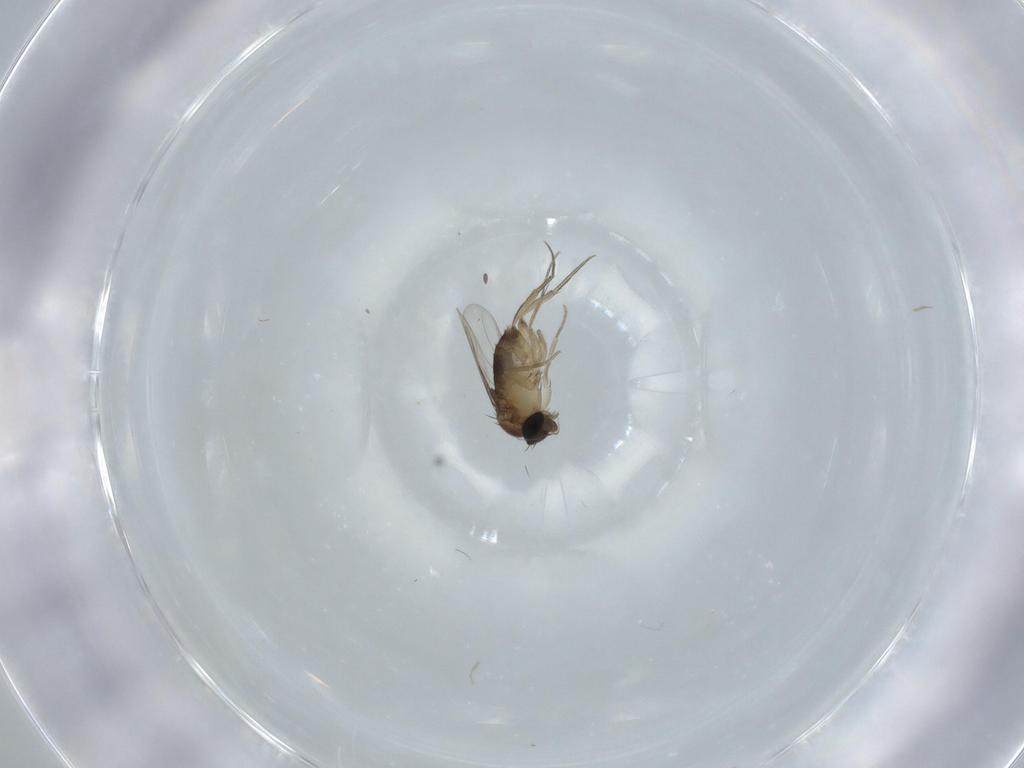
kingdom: Animalia
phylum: Arthropoda
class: Insecta
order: Diptera
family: Phoridae
